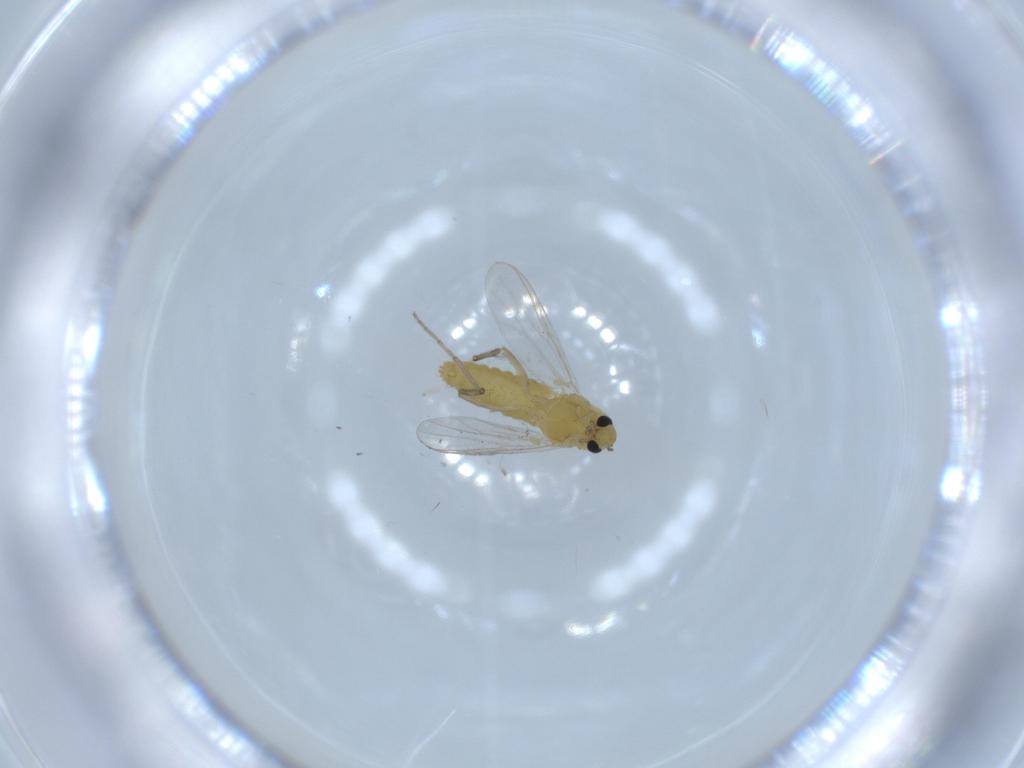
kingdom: Animalia
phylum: Arthropoda
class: Insecta
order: Diptera
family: Chironomidae
